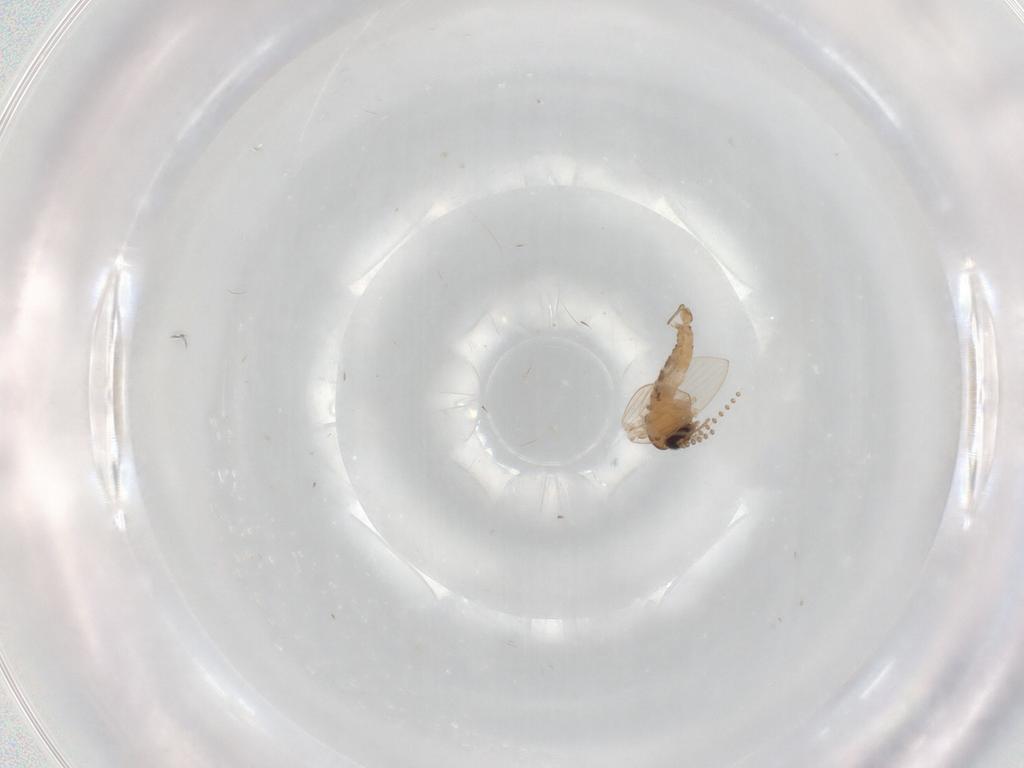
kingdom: Animalia
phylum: Arthropoda
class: Insecta
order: Diptera
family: Psychodidae
